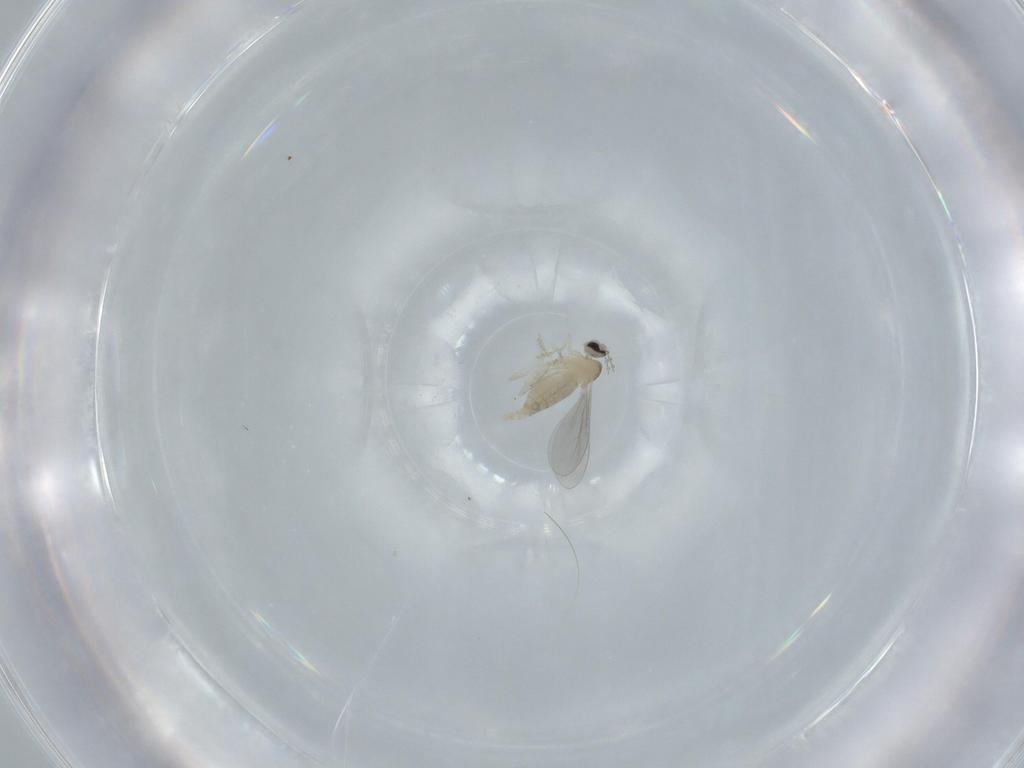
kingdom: Animalia
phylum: Arthropoda
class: Insecta
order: Diptera
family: Cecidomyiidae
